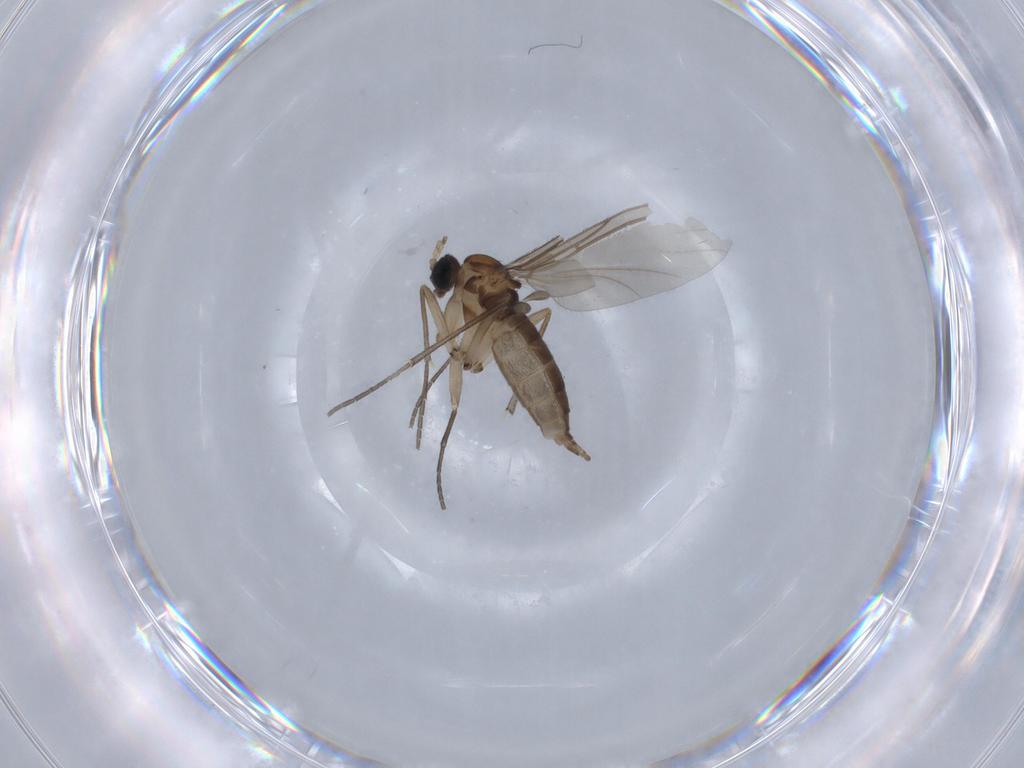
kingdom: Animalia
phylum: Arthropoda
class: Insecta
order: Diptera
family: Sciaridae
